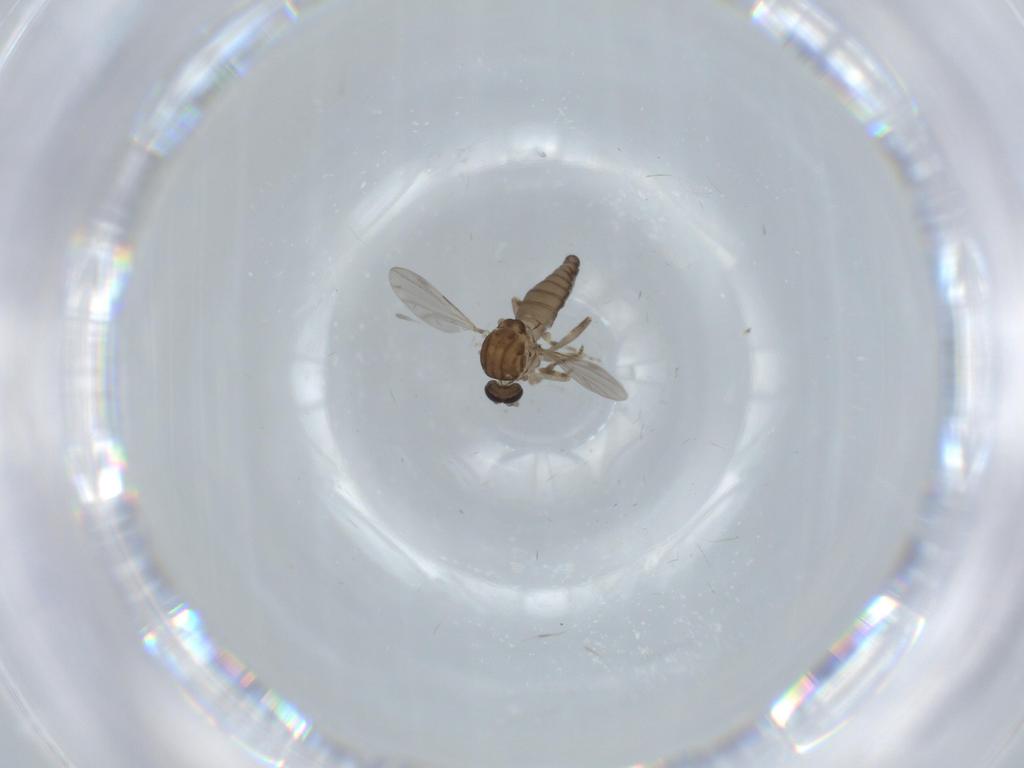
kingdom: Animalia
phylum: Arthropoda
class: Insecta
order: Diptera
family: Ceratopogonidae
